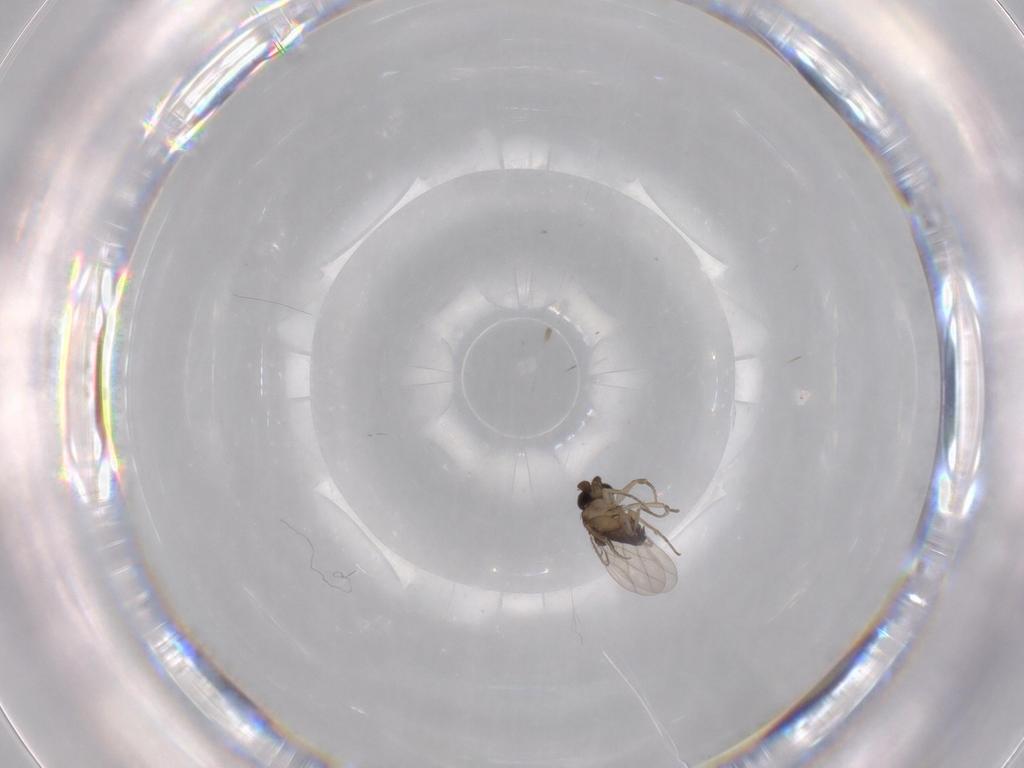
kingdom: Animalia
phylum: Arthropoda
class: Insecta
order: Diptera
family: Phoridae
